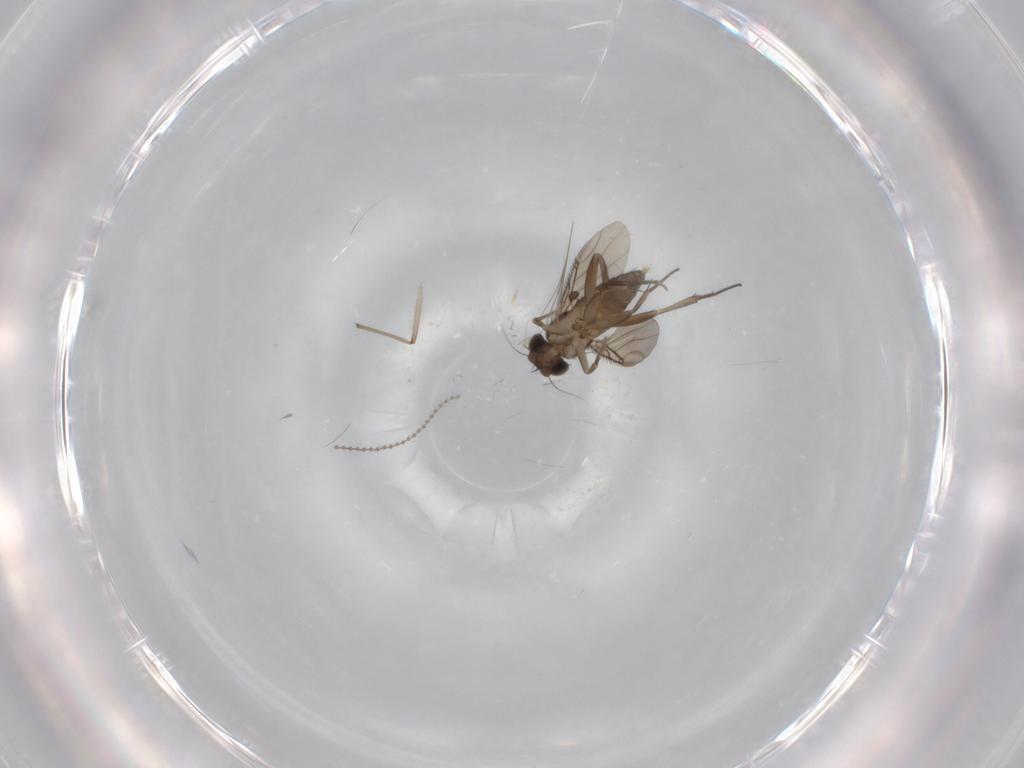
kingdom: Animalia
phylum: Arthropoda
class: Insecta
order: Diptera
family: Phoridae
